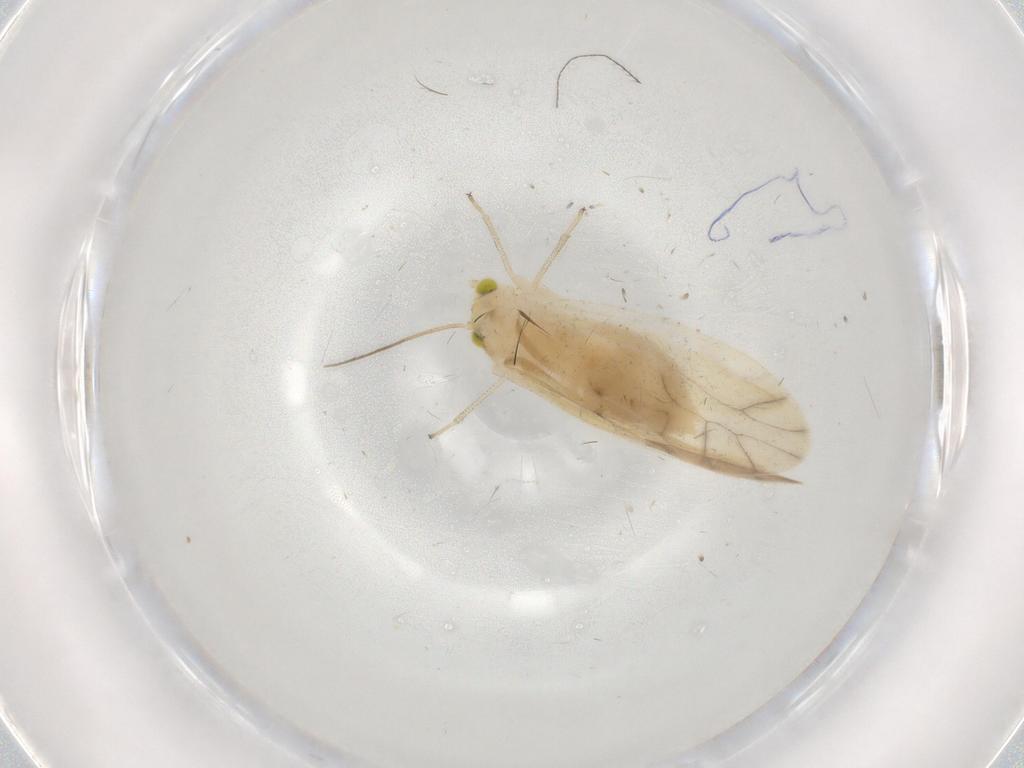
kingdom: Animalia
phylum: Arthropoda
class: Insecta
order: Psocodea
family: Caeciliusidae
